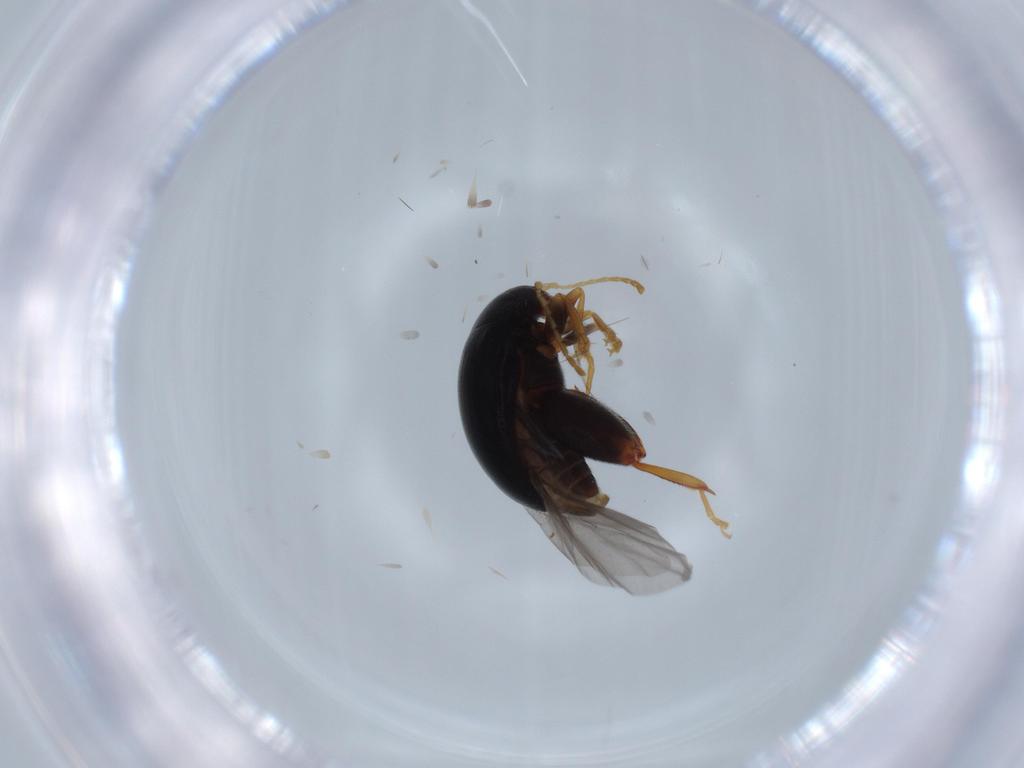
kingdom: Animalia
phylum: Arthropoda
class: Insecta
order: Coleoptera
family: Chrysomelidae
